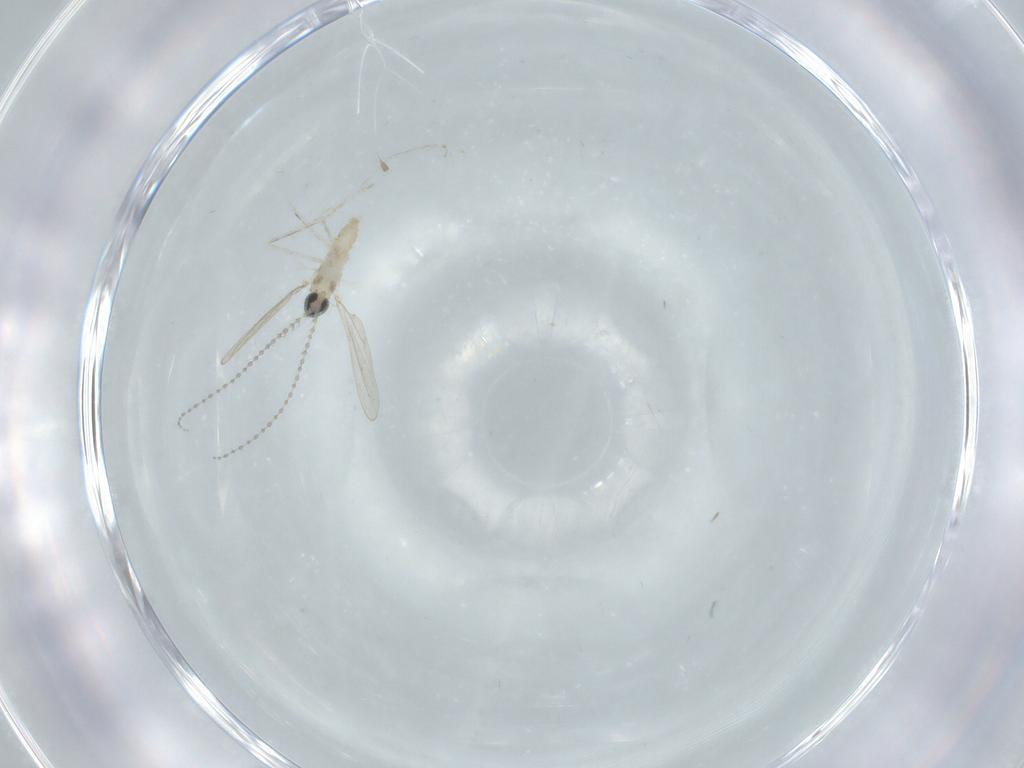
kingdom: Animalia
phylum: Arthropoda
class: Insecta
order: Diptera
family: Cecidomyiidae
